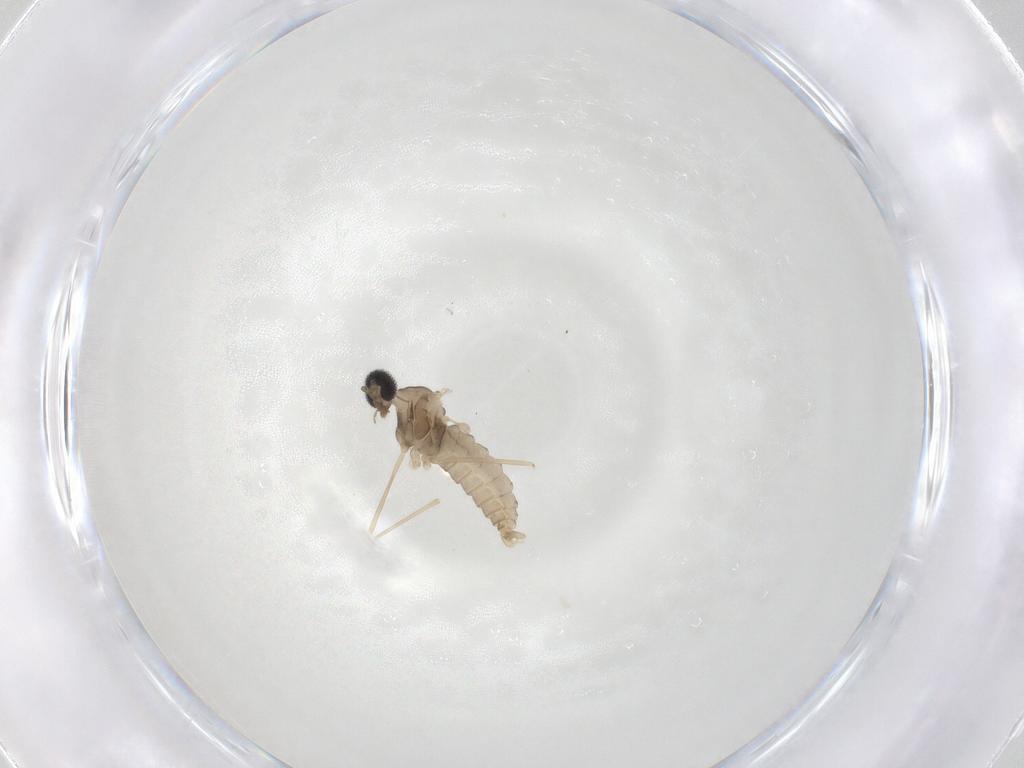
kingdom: Animalia
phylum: Arthropoda
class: Insecta
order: Diptera
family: Cecidomyiidae
